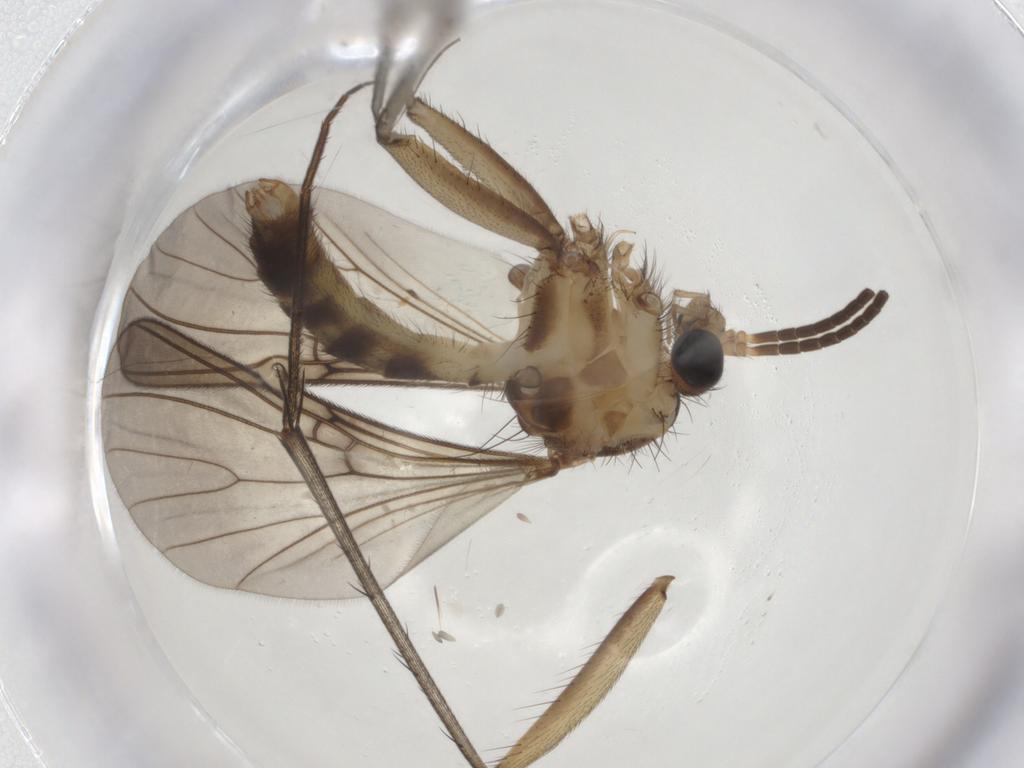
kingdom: Animalia
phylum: Arthropoda
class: Insecta
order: Diptera
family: Mycetophilidae
